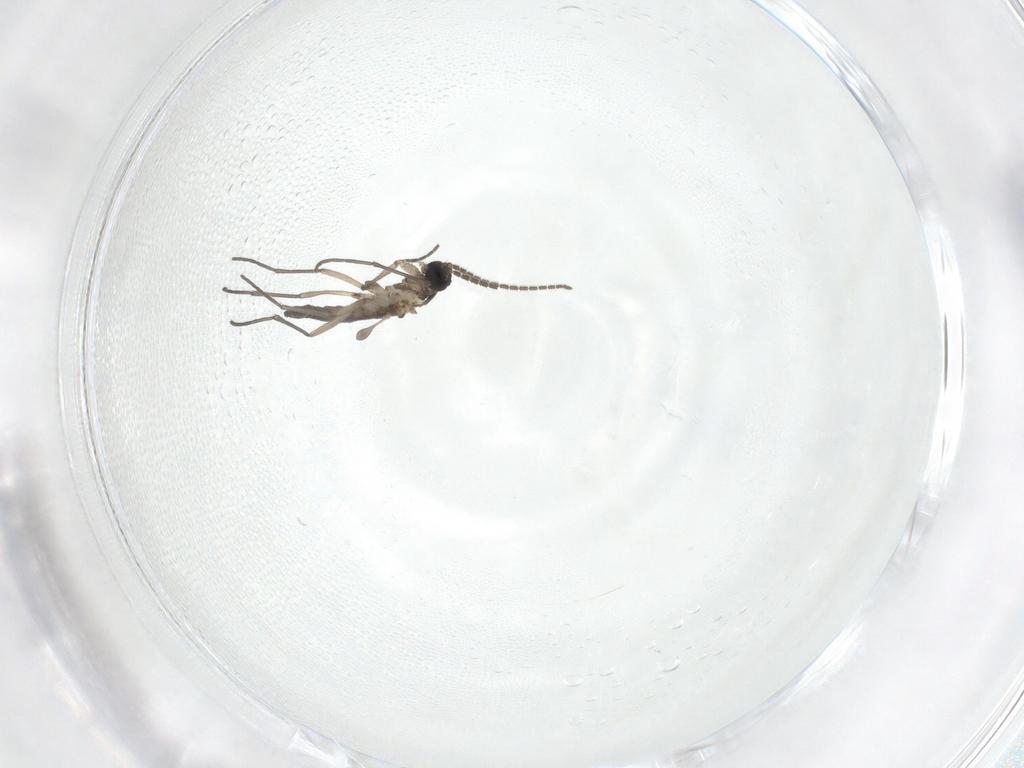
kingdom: Animalia
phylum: Arthropoda
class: Insecta
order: Diptera
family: Sciaridae
